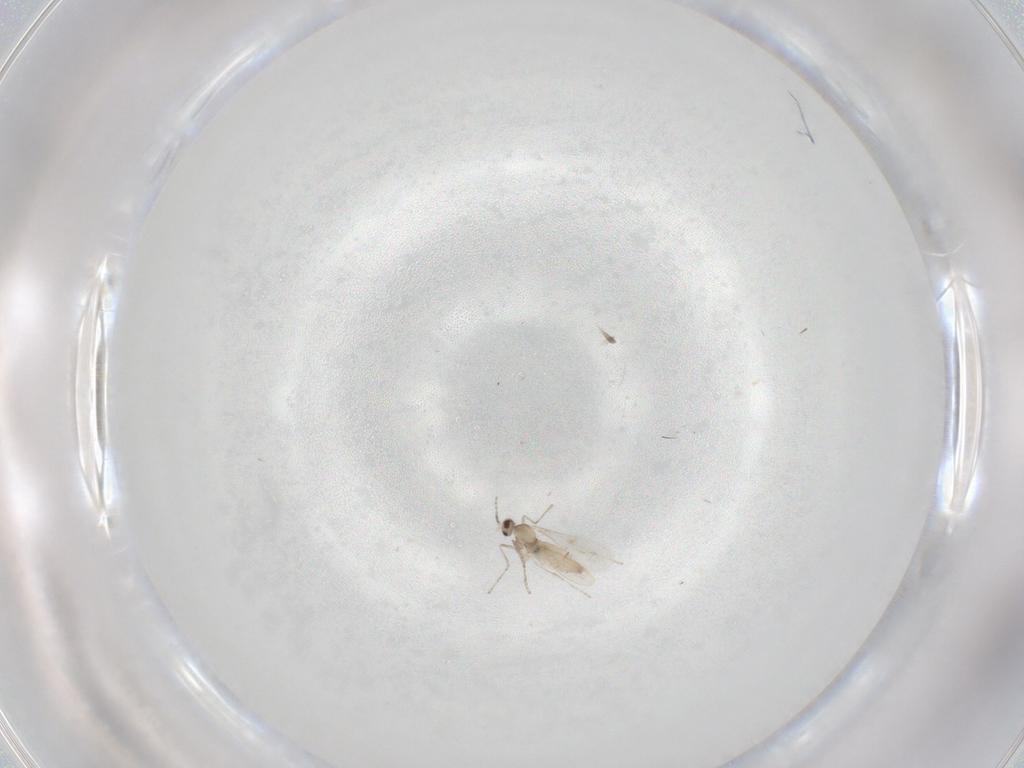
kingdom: Animalia
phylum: Arthropoda
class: Insecta
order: Diptera
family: Cecidomyiidae
